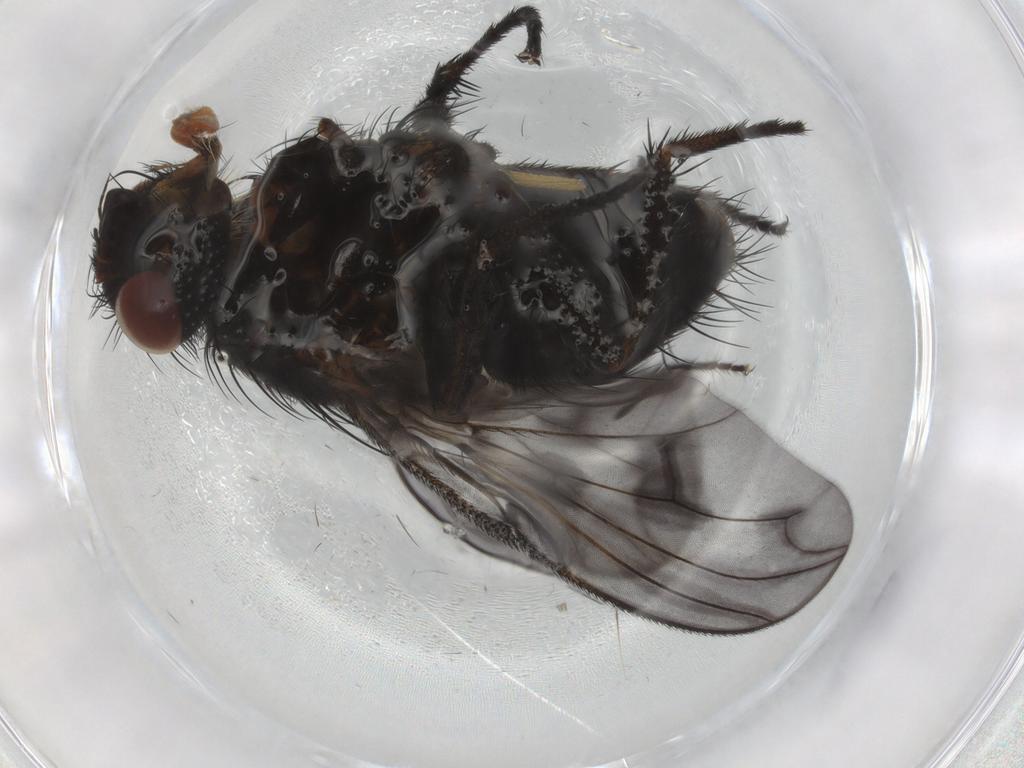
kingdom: Animalia
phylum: Arthropoda
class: Insecta
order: Diptera
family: Empididae
